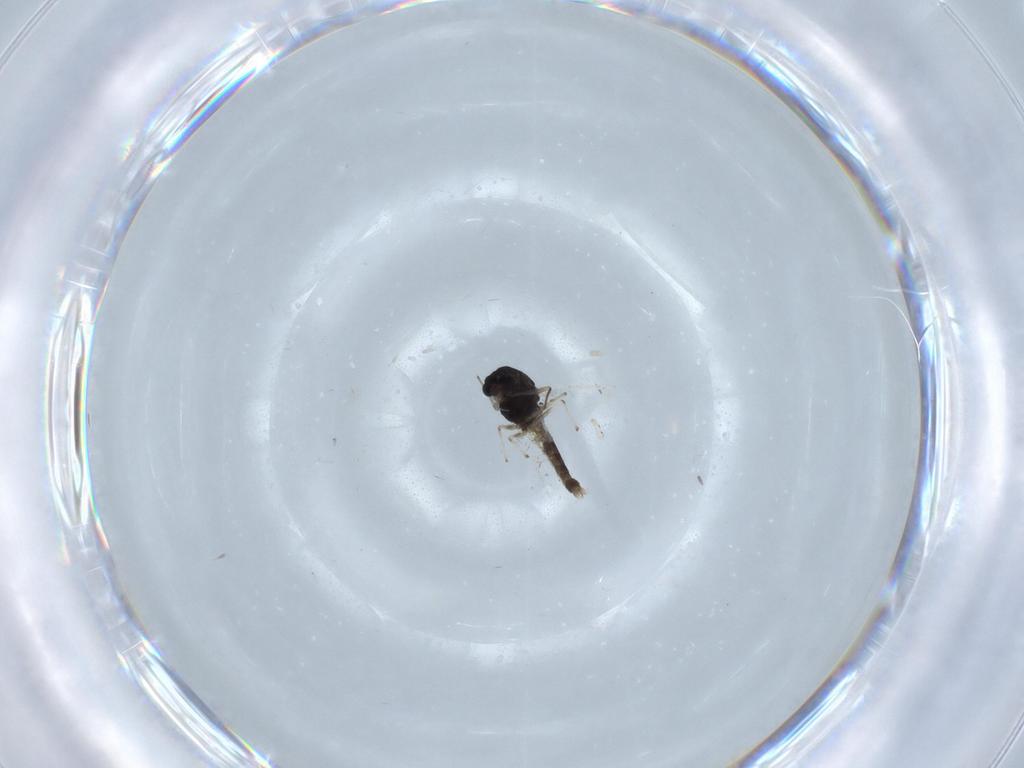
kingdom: Animalia
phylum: Arthropoda
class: Insecta
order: Diptera
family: Chironomidae
